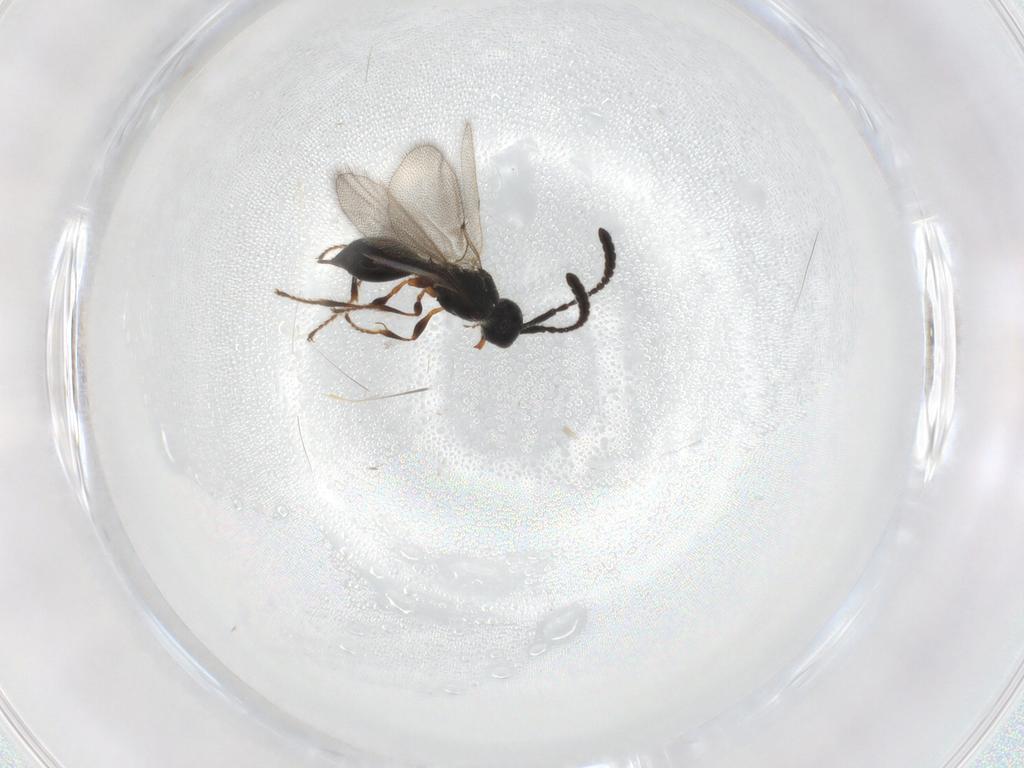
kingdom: Animalia
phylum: Arthropoda
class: Insecta
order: Hymenoptera
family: Diapriidae
